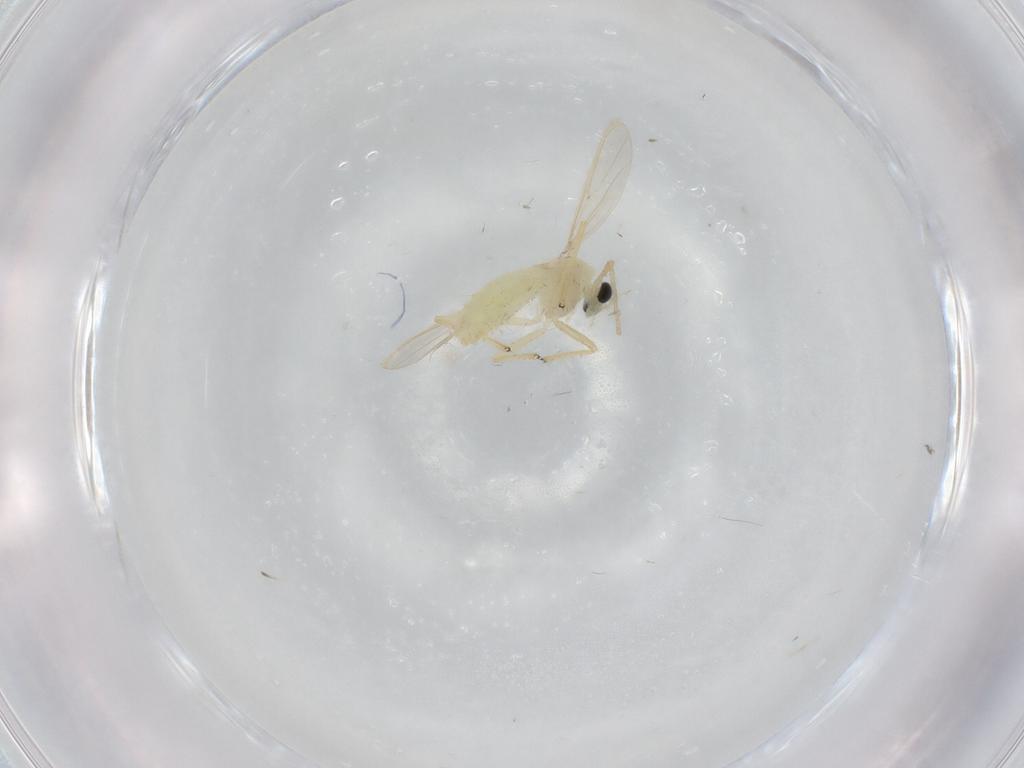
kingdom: Animalia
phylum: Arthropoda
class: Insecta
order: Diptera
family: Chironomidae
